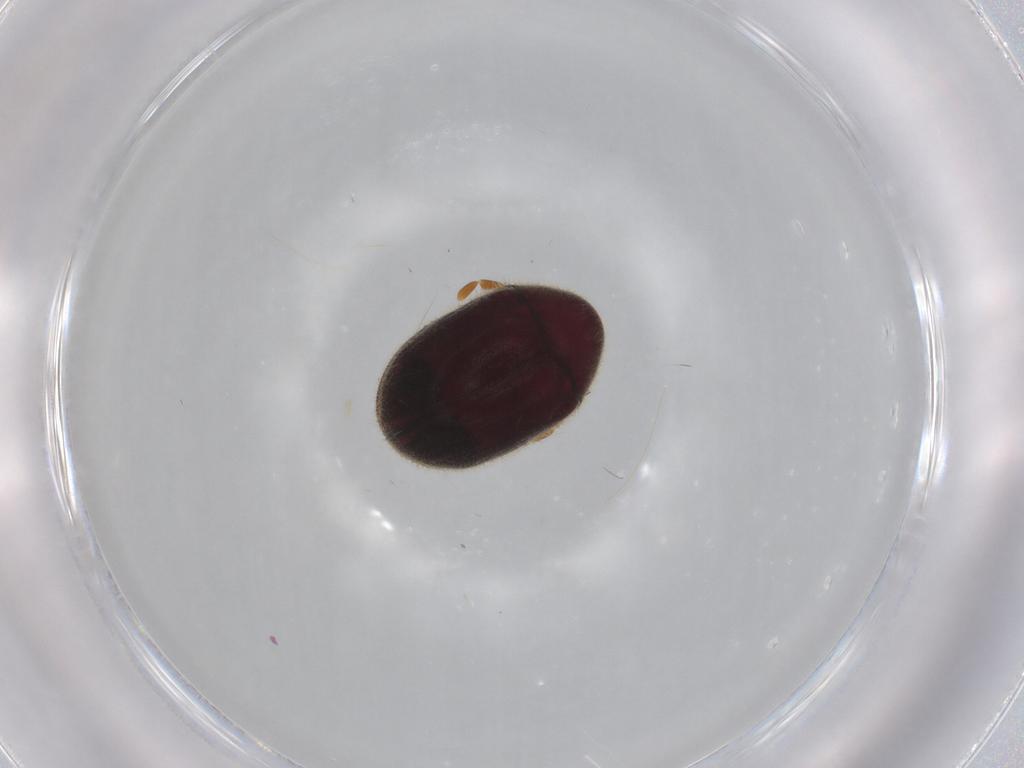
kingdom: Animalia
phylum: Arthropoda
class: Insecta
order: Coleoptera
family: Ptinidae
